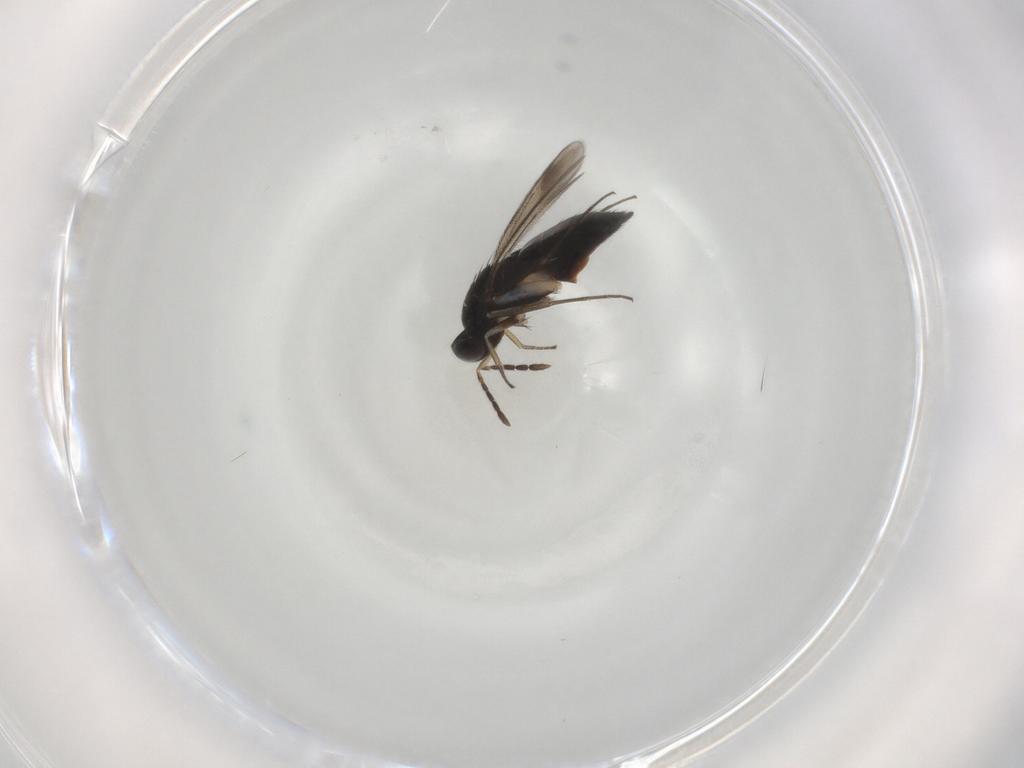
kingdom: Animalia
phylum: Arthropoda
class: Insecta
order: Hymenoptera
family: Eulophidae
